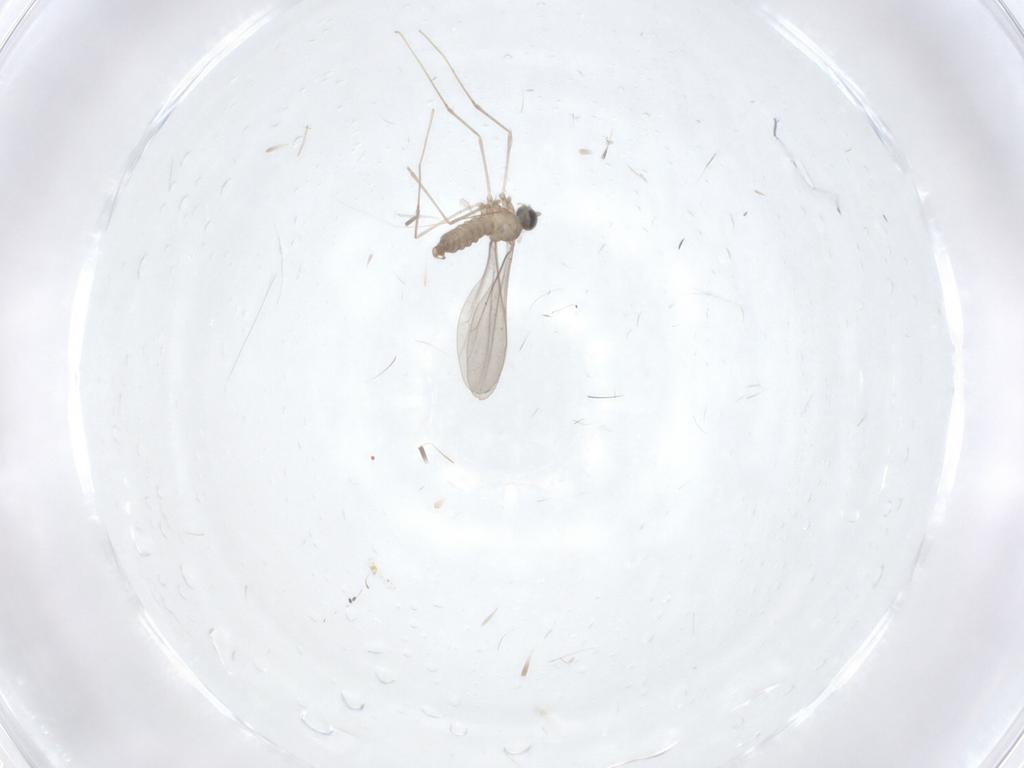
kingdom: Animalia
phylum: Arthropoda
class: Insecta
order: Diptera
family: Cecidomyiidae
